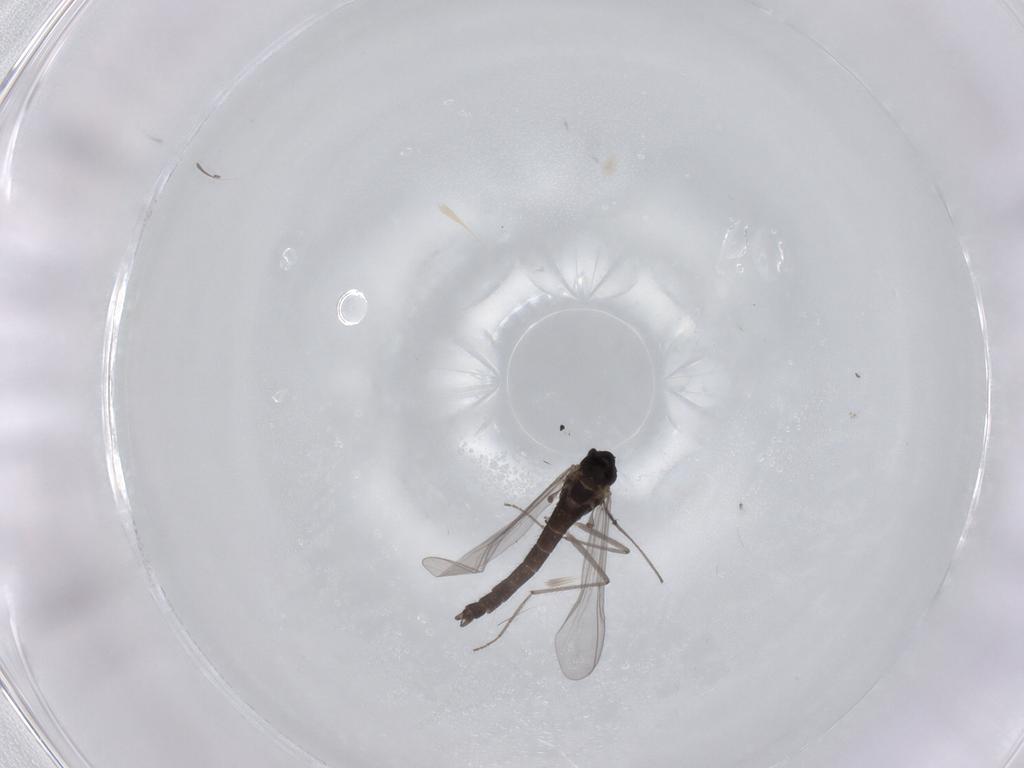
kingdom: Animalia
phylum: Arthropoda
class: Insecta
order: Diptera
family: Chironomidae
